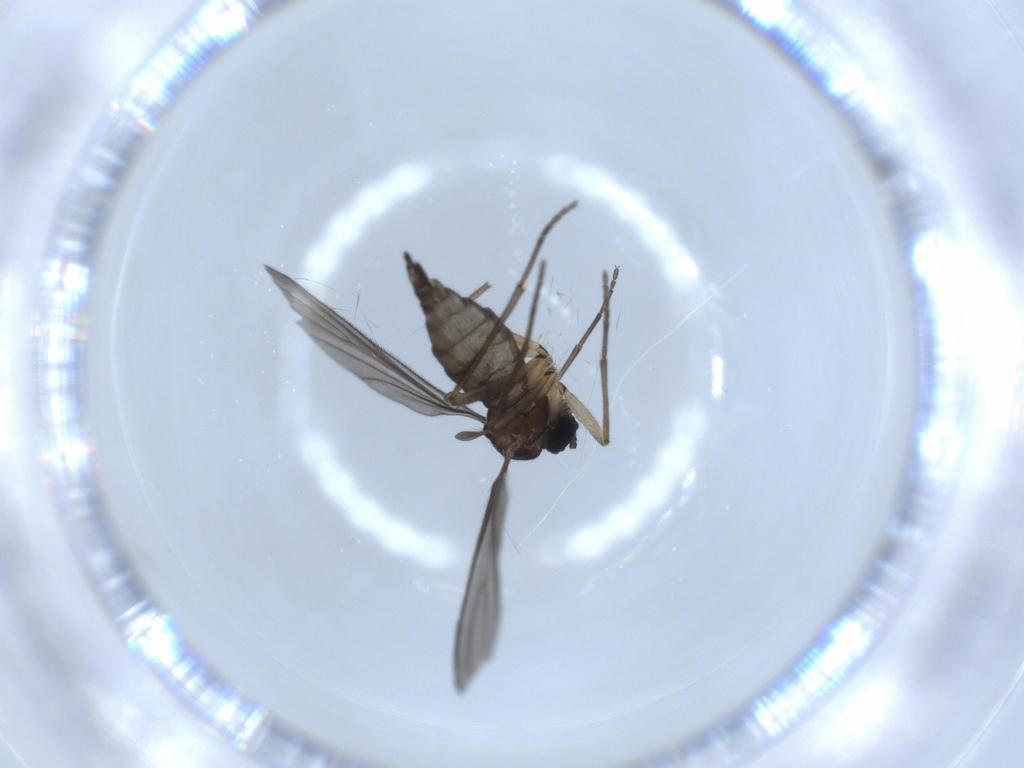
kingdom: Animalia
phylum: Arthropoda
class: Insecta
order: Diptera
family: Sciaridae
